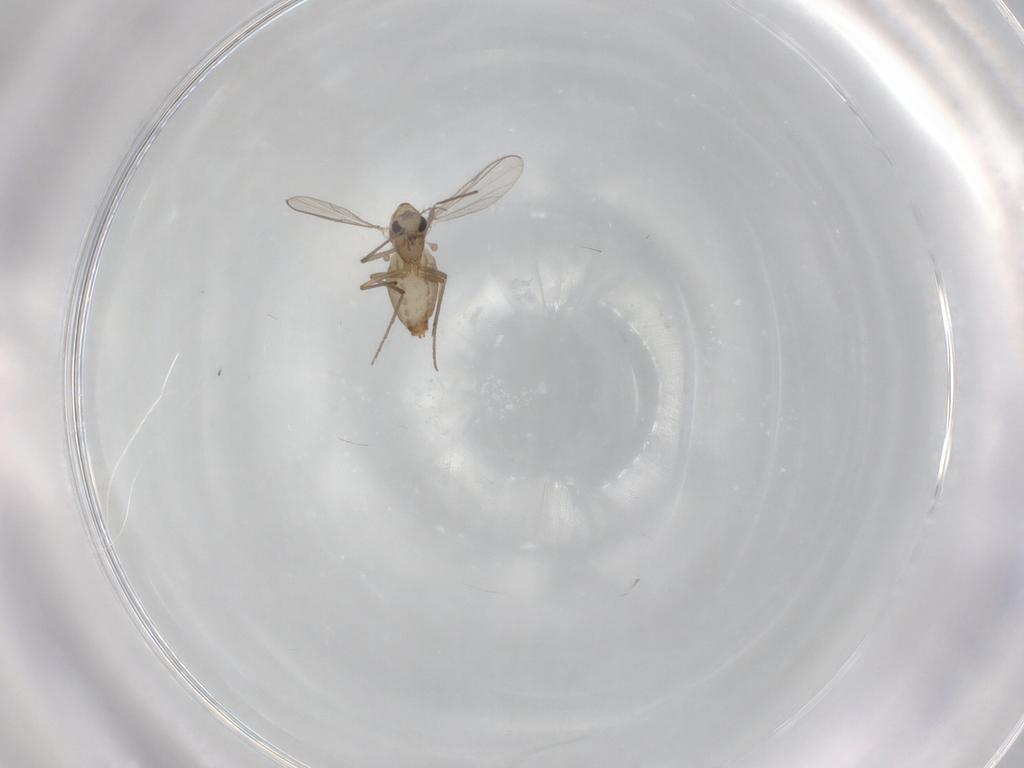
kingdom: Animalia
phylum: Arthropoda
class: Insecta
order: Diptera
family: Chironomidae
